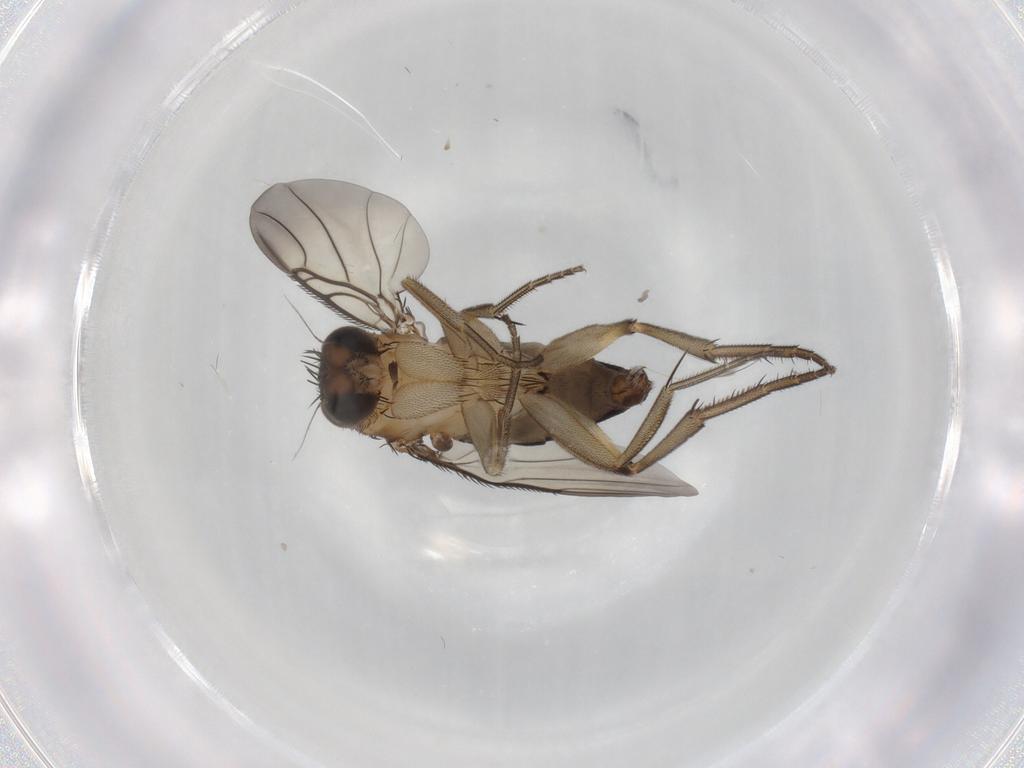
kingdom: Animalia
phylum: Arthropoda
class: Insecta
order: Diptera
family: Phoridae
